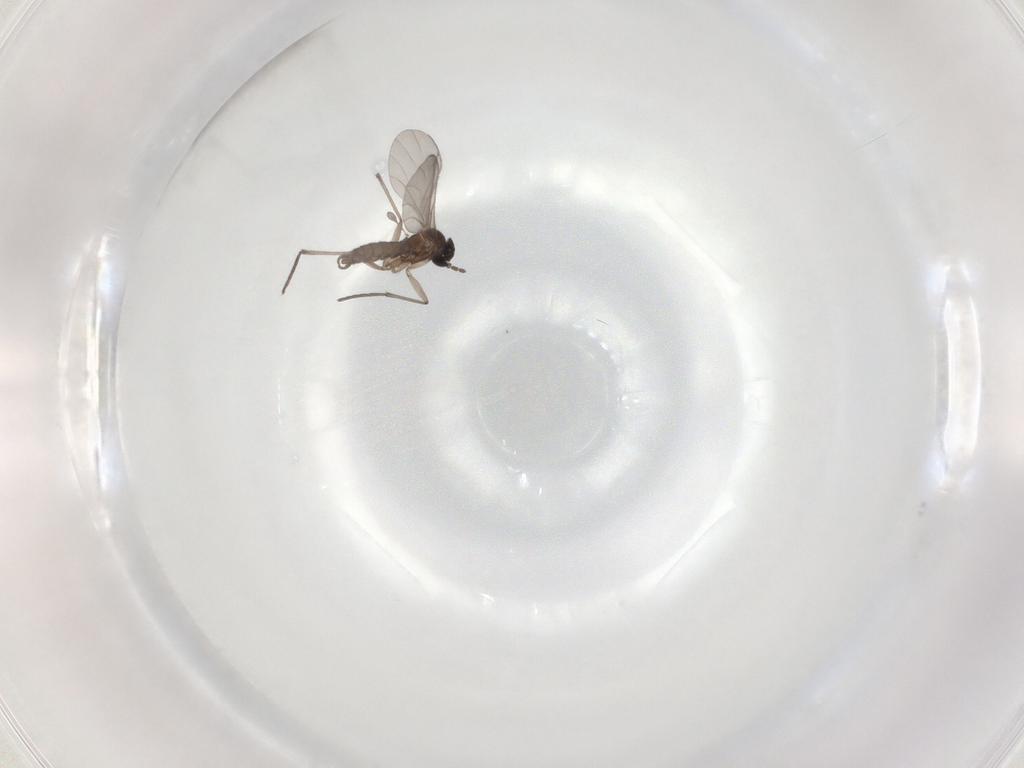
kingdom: Animalia
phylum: Arthropoda
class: Insecta
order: Diptera
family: Sciaridae
